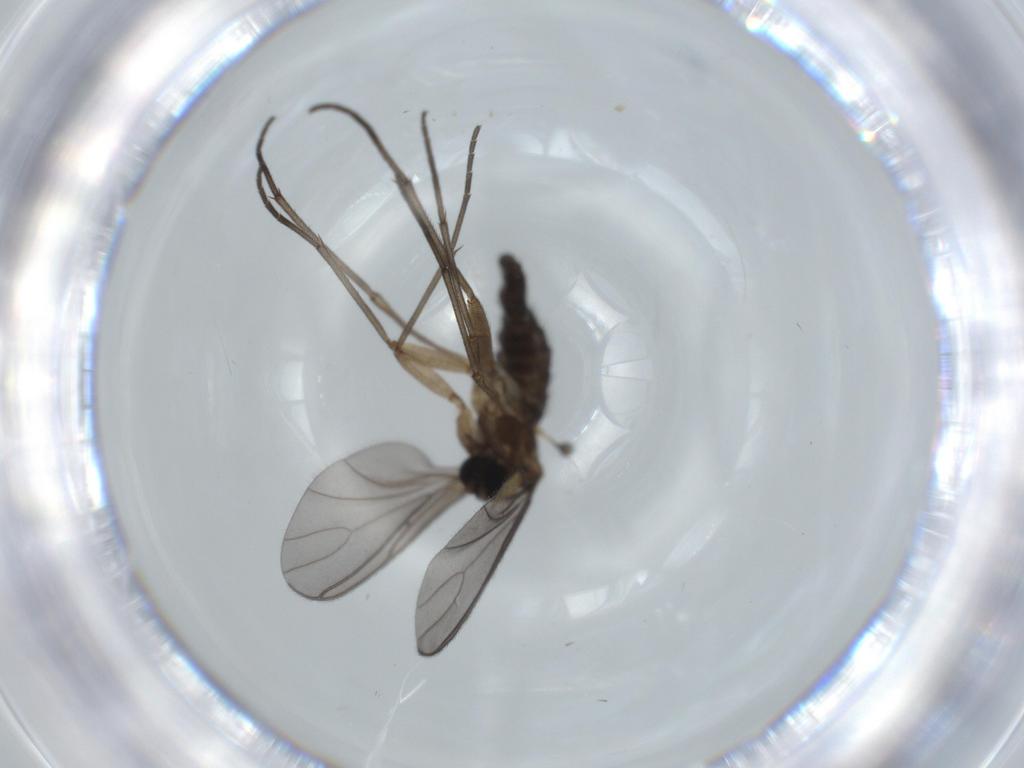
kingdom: Animalia
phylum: Arthropoda
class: Insecta
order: Diptera
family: Sciaridae
